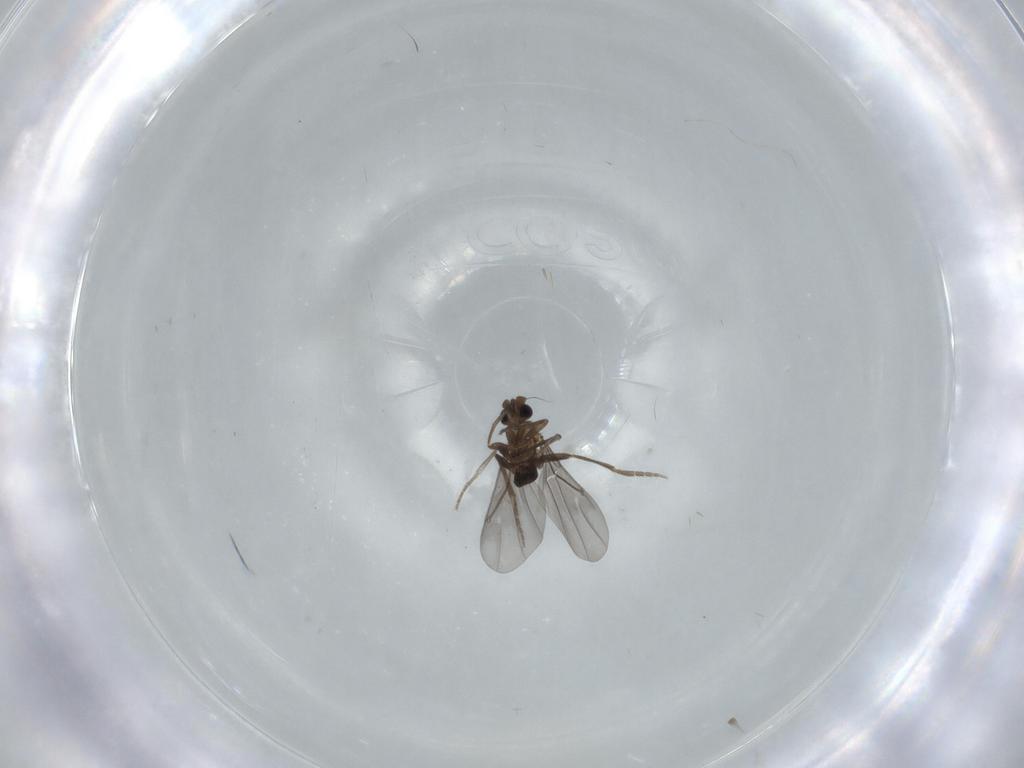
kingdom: Animalia
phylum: Arthropoda
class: Insecta
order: Diptera
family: Phoridae
